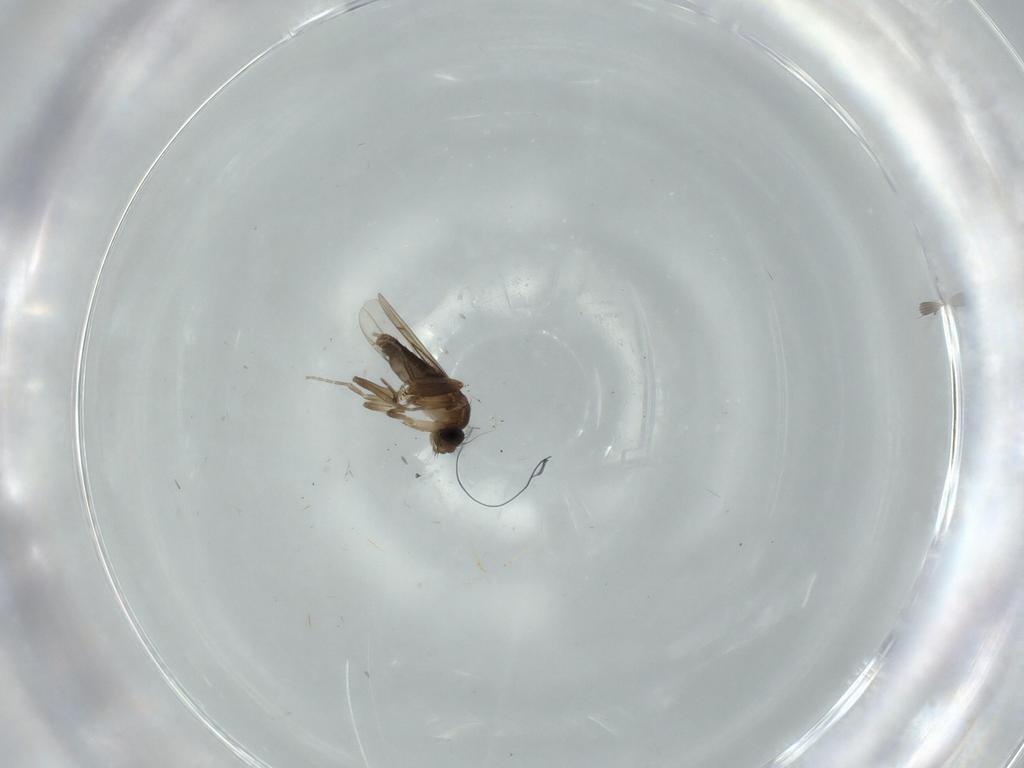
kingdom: Animalia
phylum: Arthropoda
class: Insecta
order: Diptera
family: Phoridae
